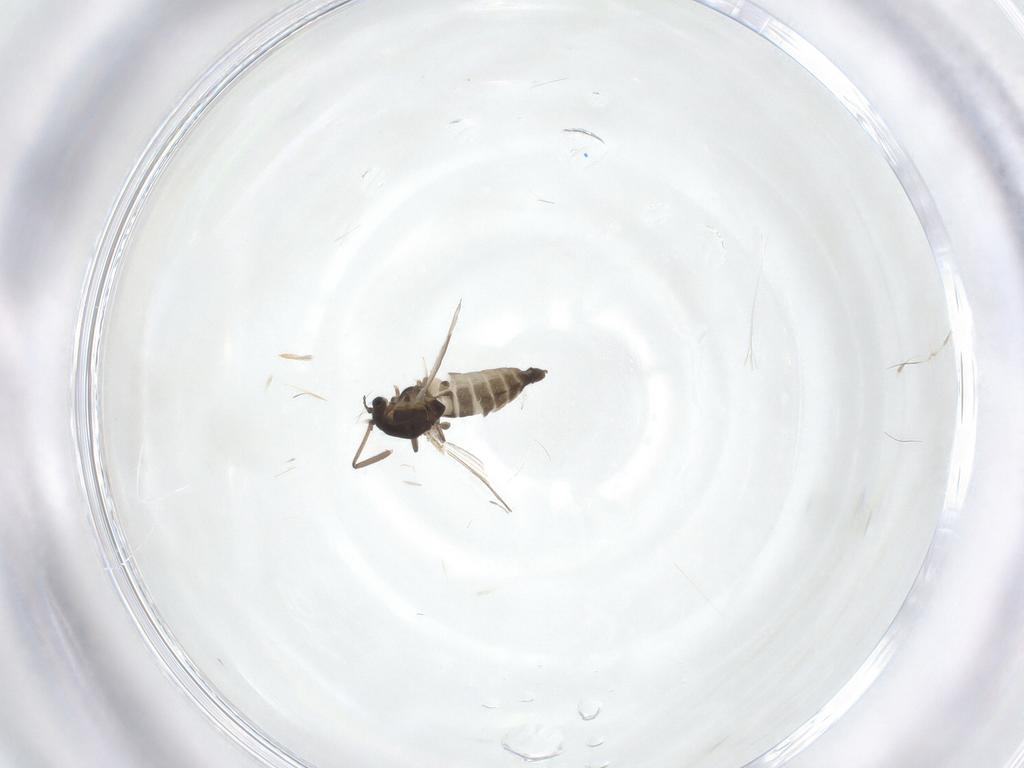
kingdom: Animalia
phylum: Arthropoda
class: Insecta
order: Diptera
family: Chironomidae
